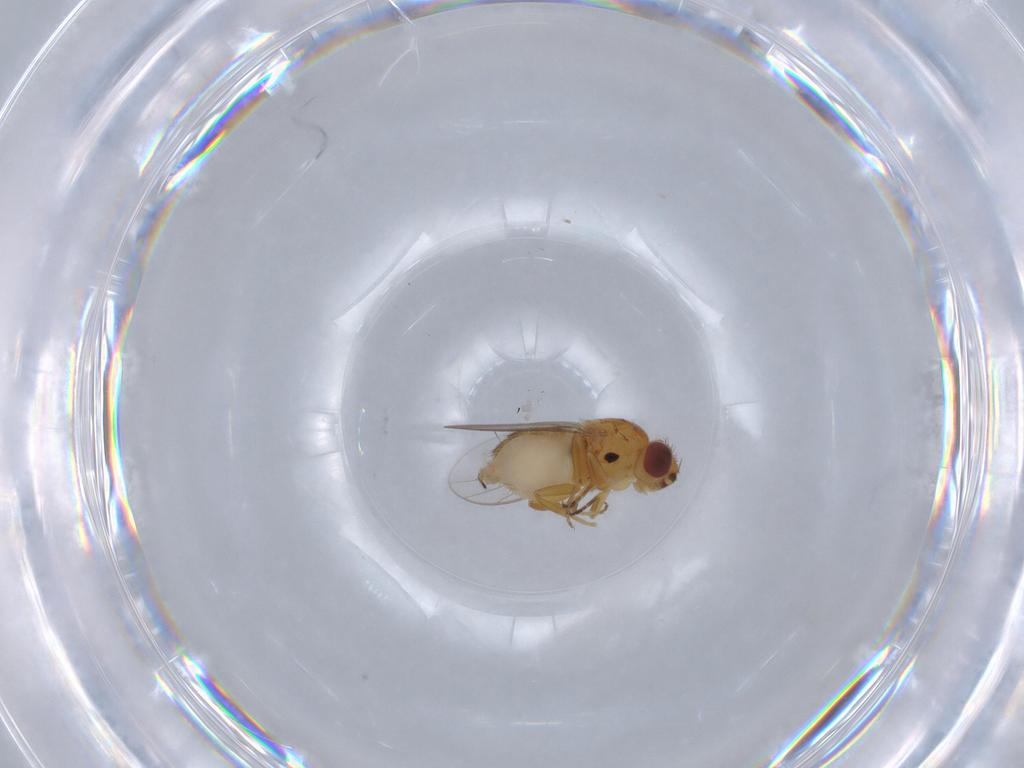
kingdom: Animalia
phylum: Arthropoda
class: Insecta
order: Diptera
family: Chloropidae
